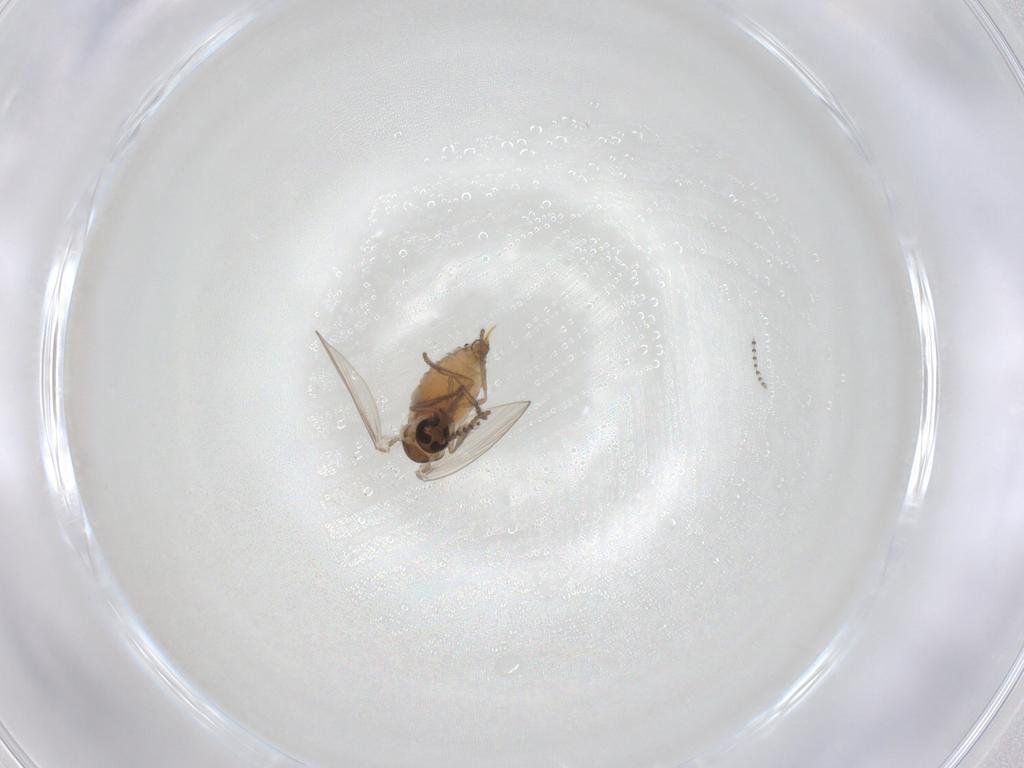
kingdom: Animalia
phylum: Arthropoda
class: Insecta
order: Diptera
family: Psychodidae
